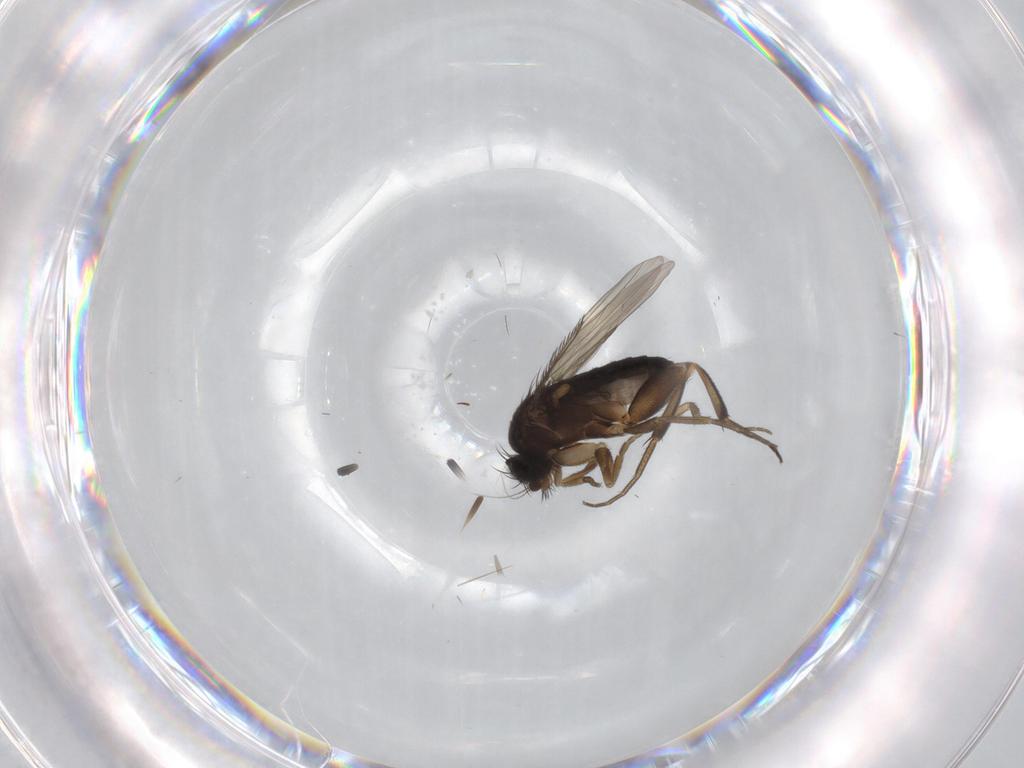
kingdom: Animalia
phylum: Arthropoda
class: Insecta
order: Diptera
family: Phoridae
